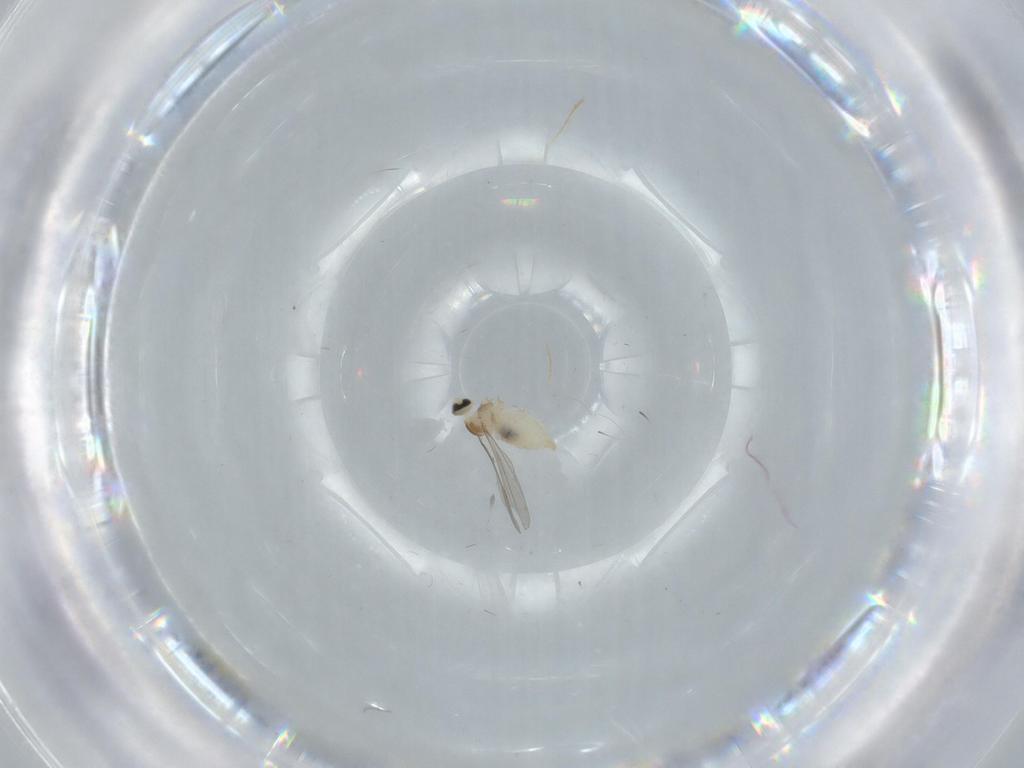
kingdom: Animalia
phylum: Arthropoda
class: Insecta
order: Diptera
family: Cecidomyiidae
